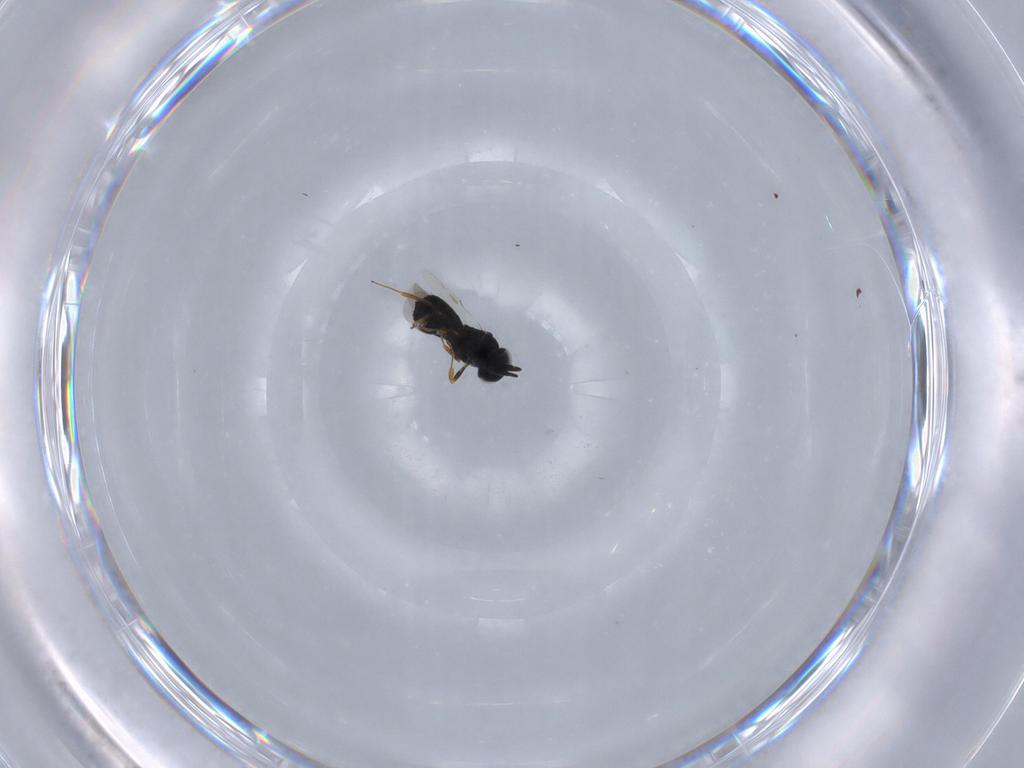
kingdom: Animalia
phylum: Arthropoda
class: Insecta
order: Hymenoptera
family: Scelionidae
